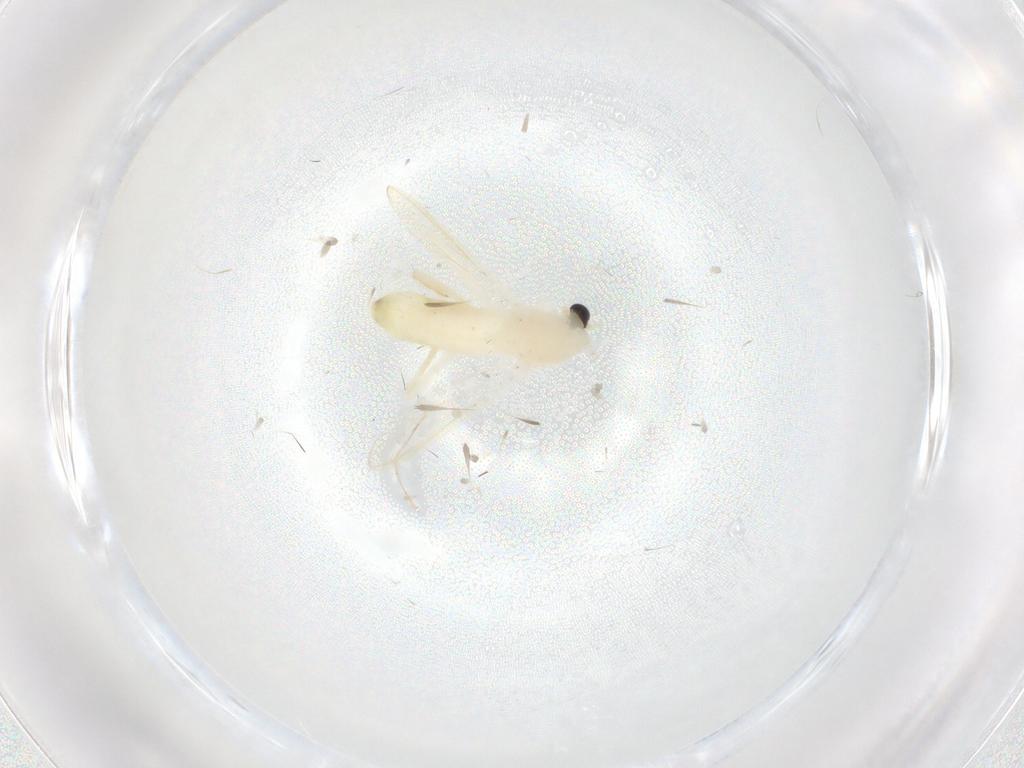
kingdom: Animalia
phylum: Arthropoda
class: Insecta
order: Diptera
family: Chironomidae
